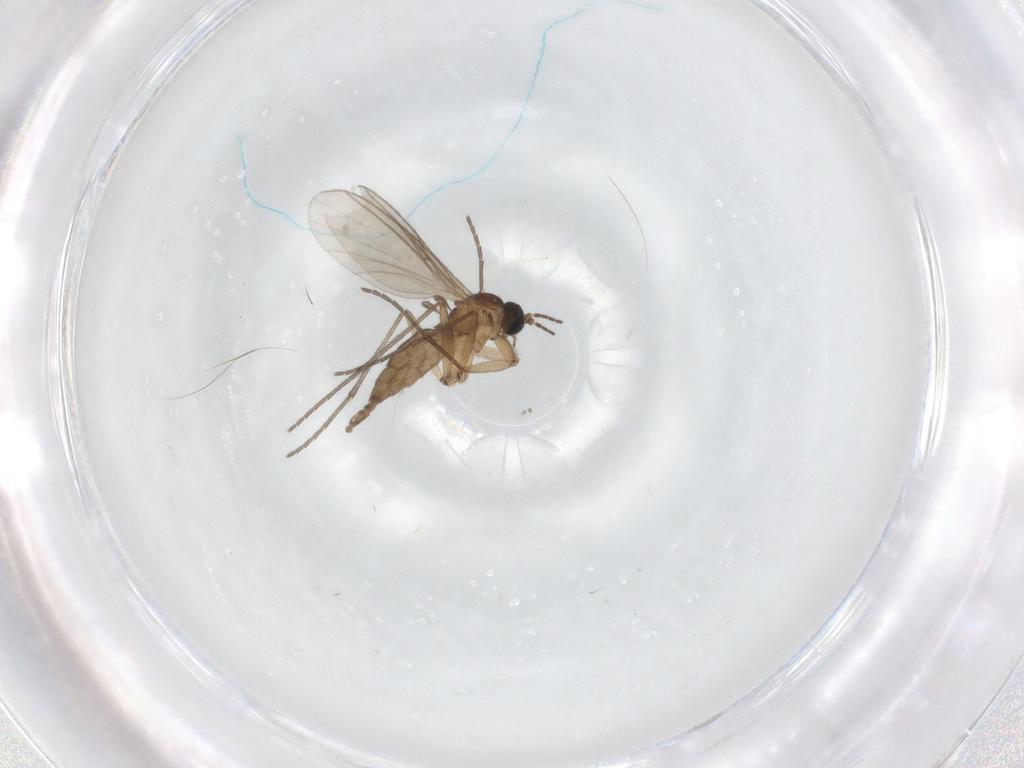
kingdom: Animalia
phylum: Arthropoda
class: Insecta
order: Diptera
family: Sciaridae
